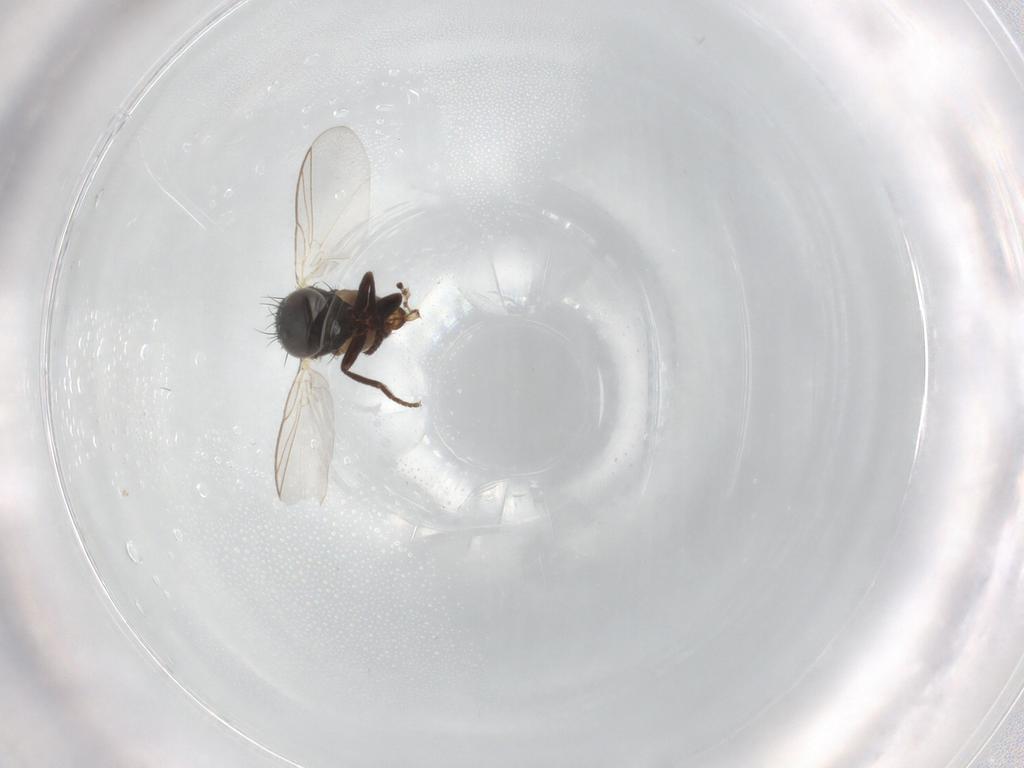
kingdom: Animalia
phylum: Arthropoda
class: Insecta
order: Diptera
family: Agromyzidae
